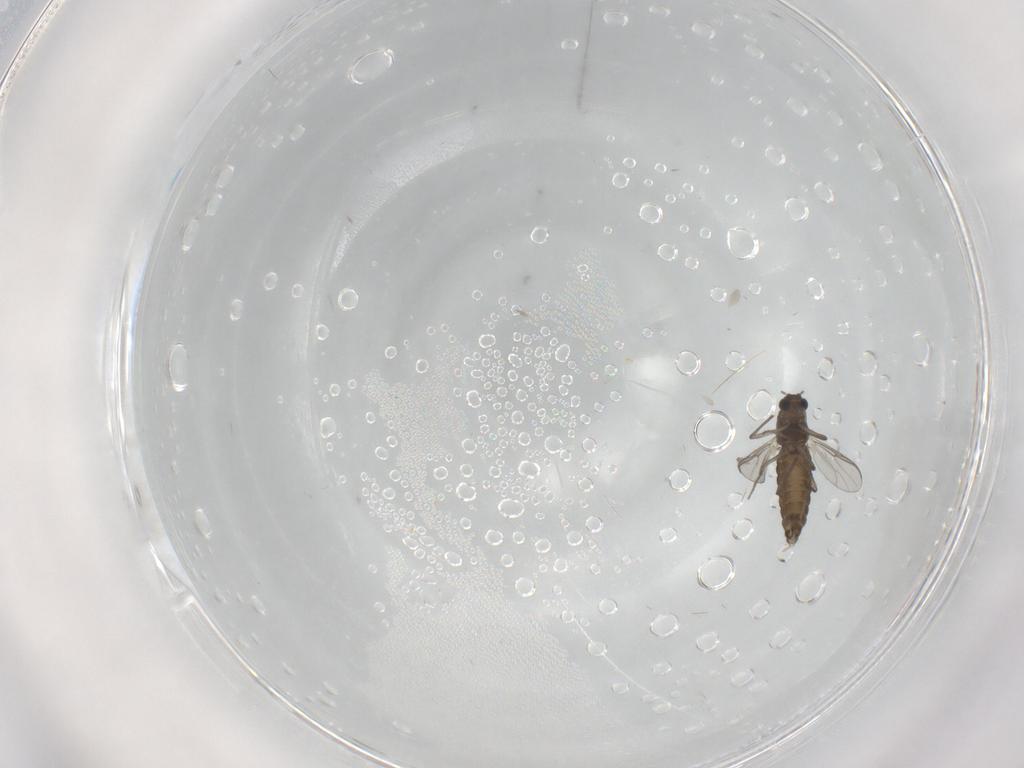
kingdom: Animalia
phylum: Arthropoda
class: Insecta
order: Diptera
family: Chironomidae
